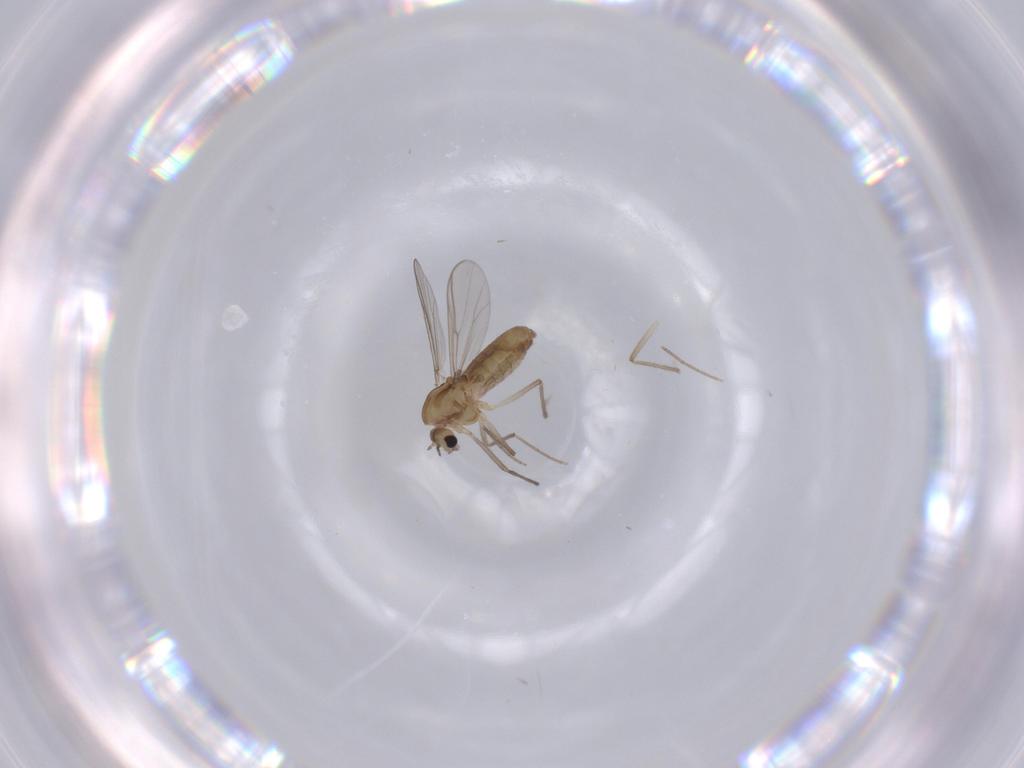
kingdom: Animalia
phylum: Arthropoda
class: Insecta
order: Diptera
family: Chironomidae
